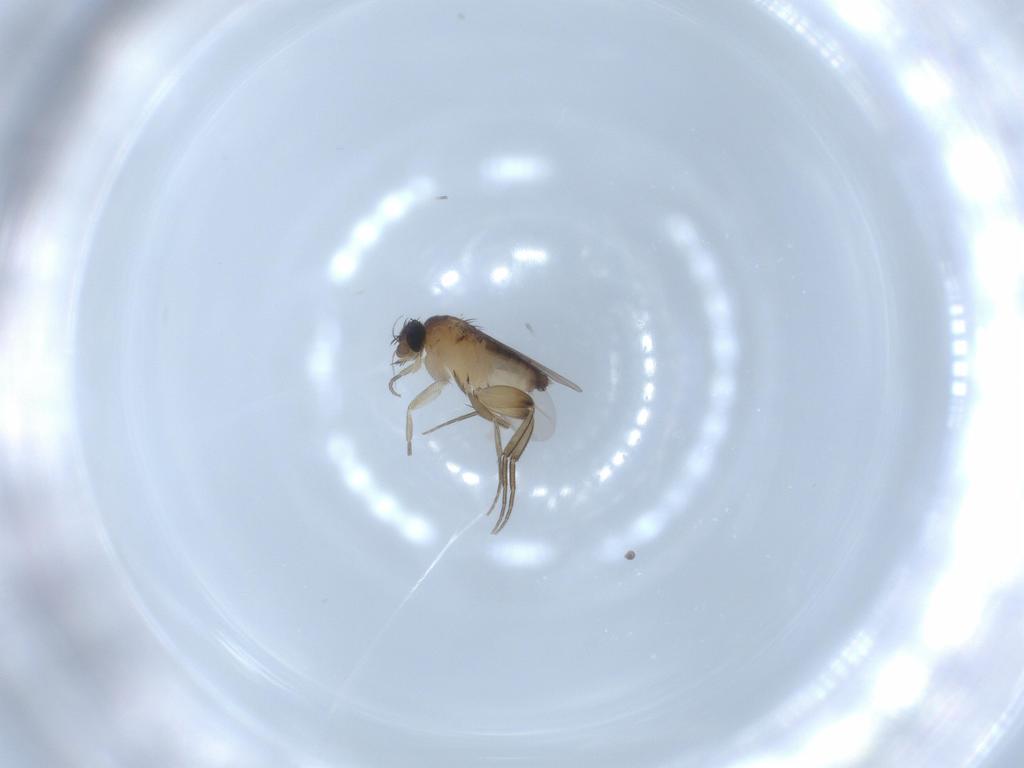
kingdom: Animalia
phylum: Arthropoda
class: Insecta
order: Diptera
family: Phoridae
